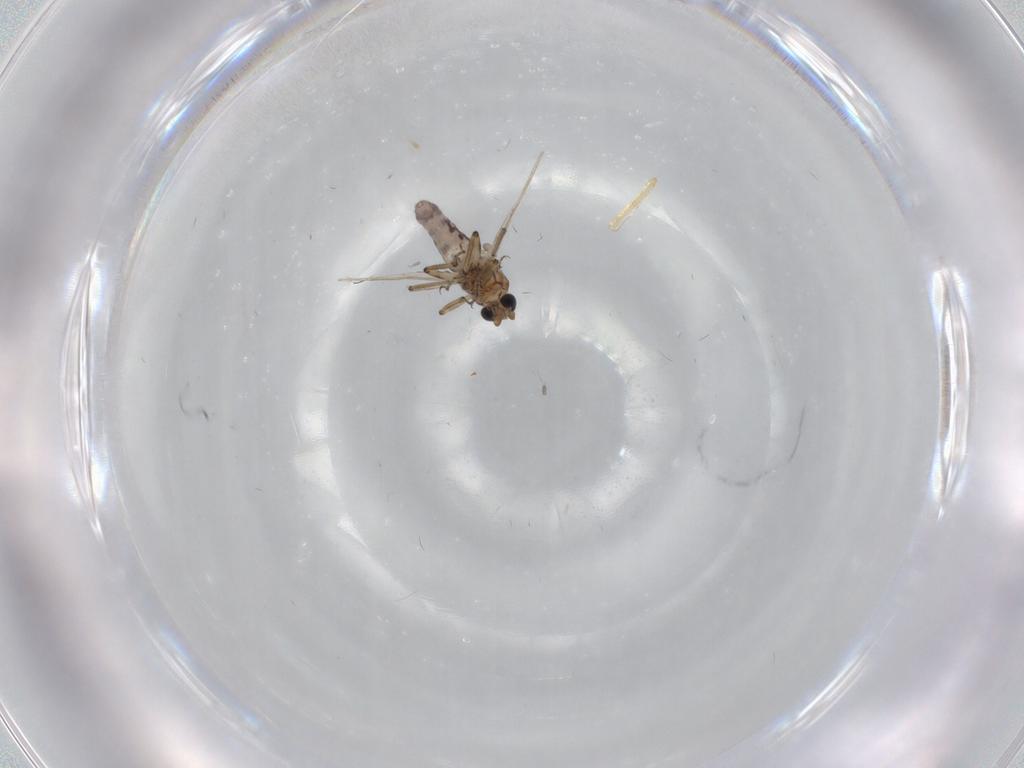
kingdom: Animalia
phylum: Arthropoda
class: Insecta
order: Diptera
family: Ceratopogonidae
